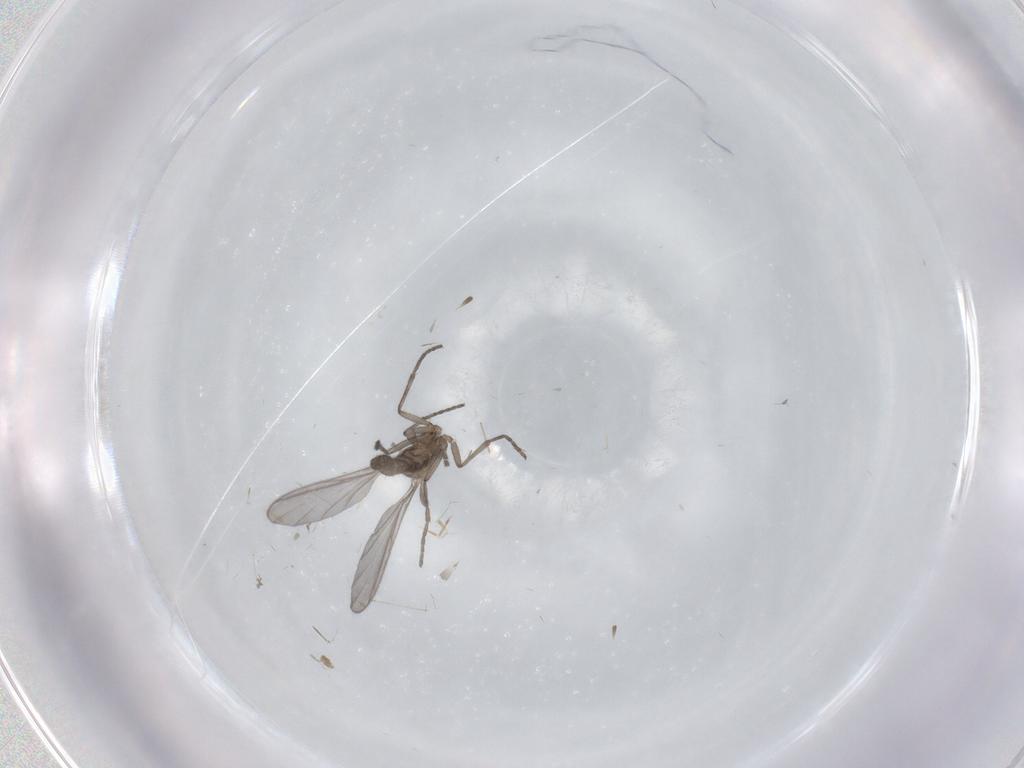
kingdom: Animalia
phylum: Arthropoda
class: Insecta
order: Diptera
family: Sciaridae
